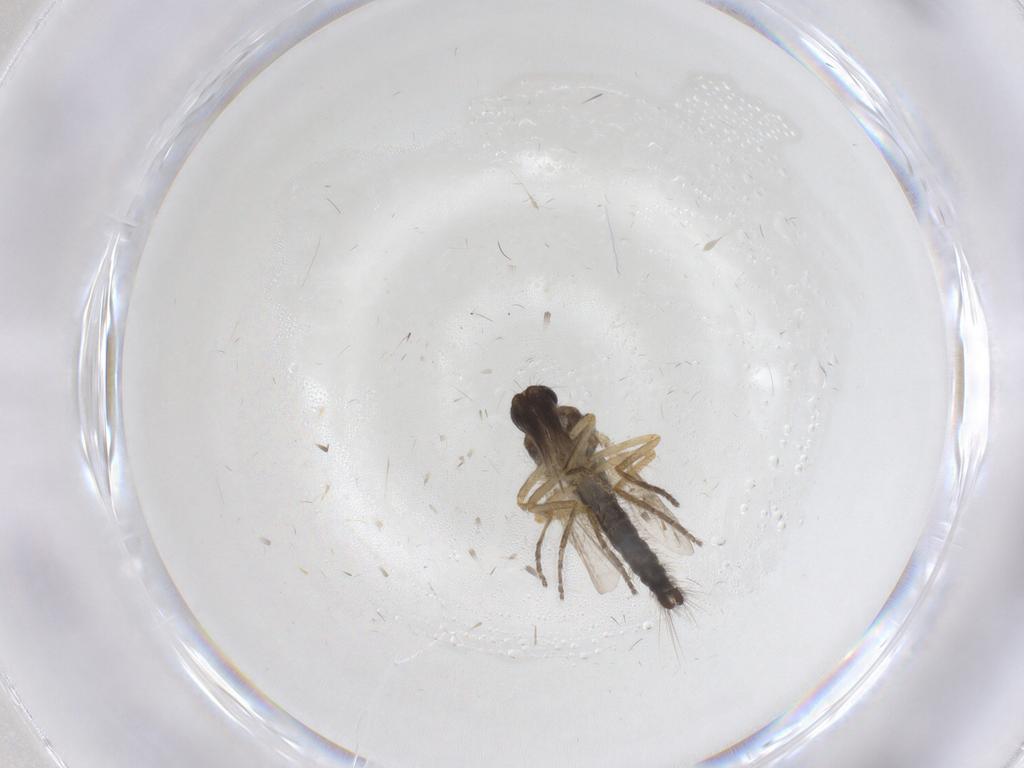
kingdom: Animalia
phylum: Arthropoda
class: Insecta
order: Diptera
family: Ceratopogonidae
